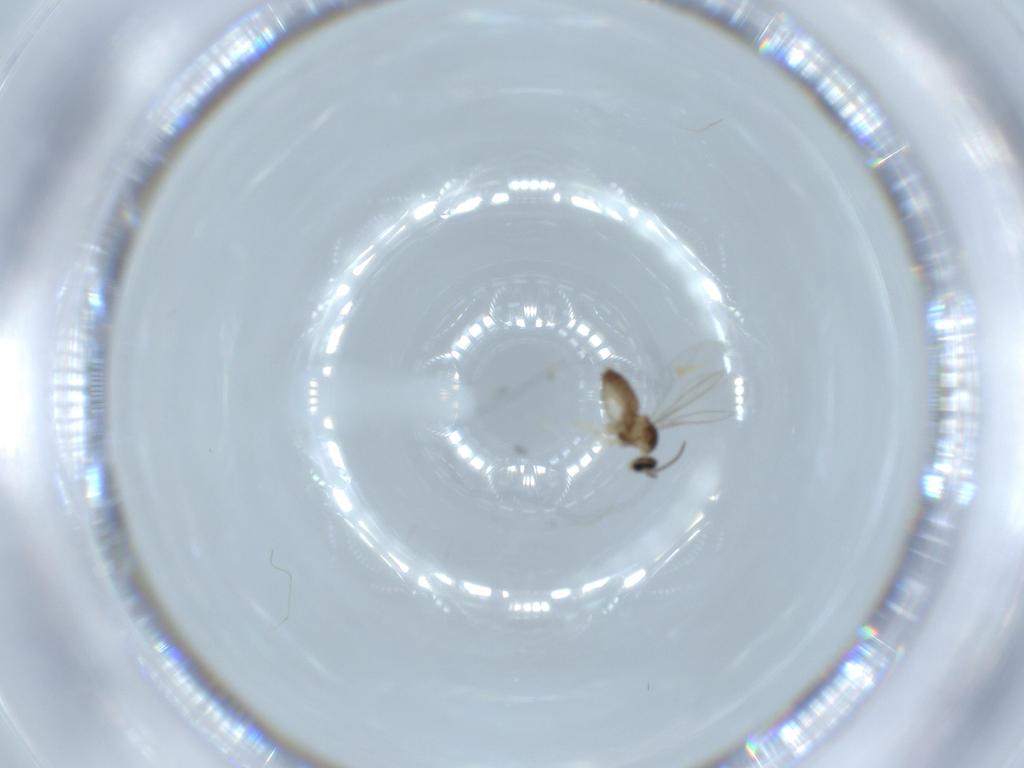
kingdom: Animalia
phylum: Arthropoda
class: Insecta
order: Diptera
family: Cecidomyiidae
